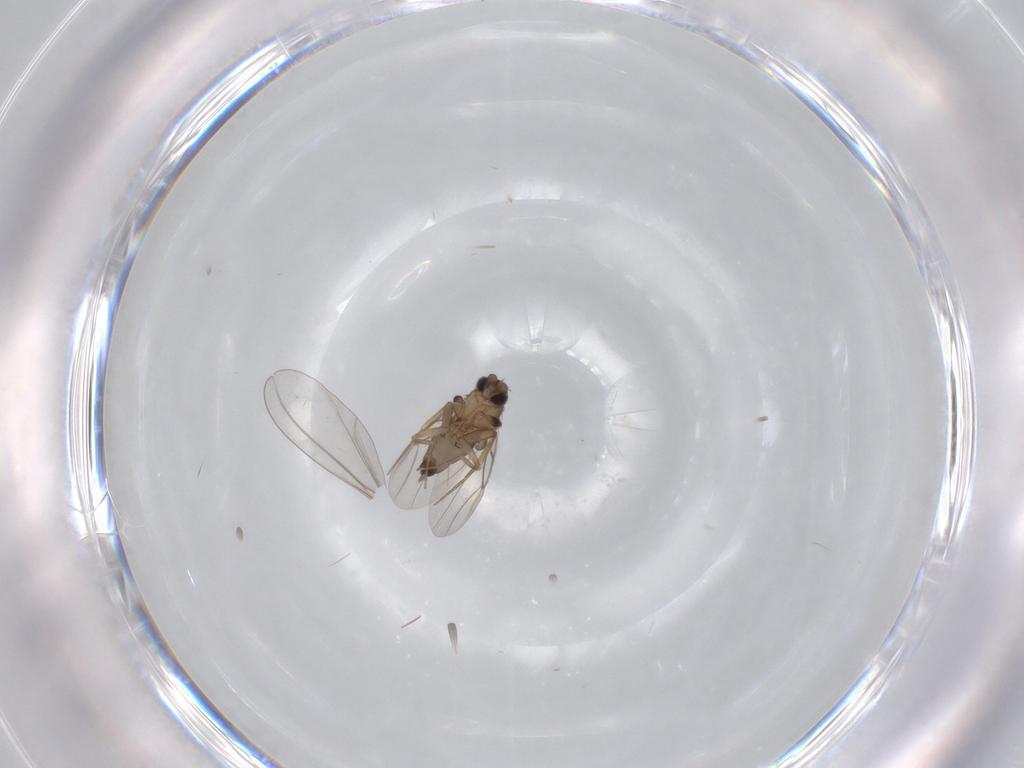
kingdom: Animalia
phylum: Arthropoda
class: Insecta
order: Diptera
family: Phoridae
